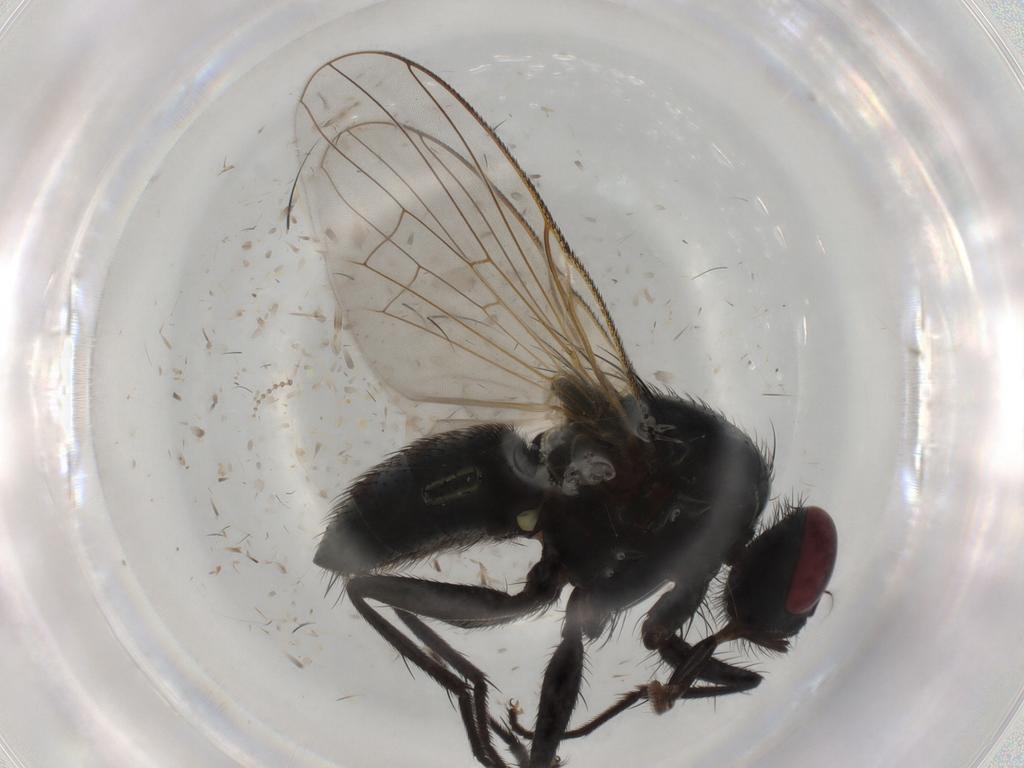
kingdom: Animalia
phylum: Arthropoda
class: Insecta
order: Diptera
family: Muscidae
